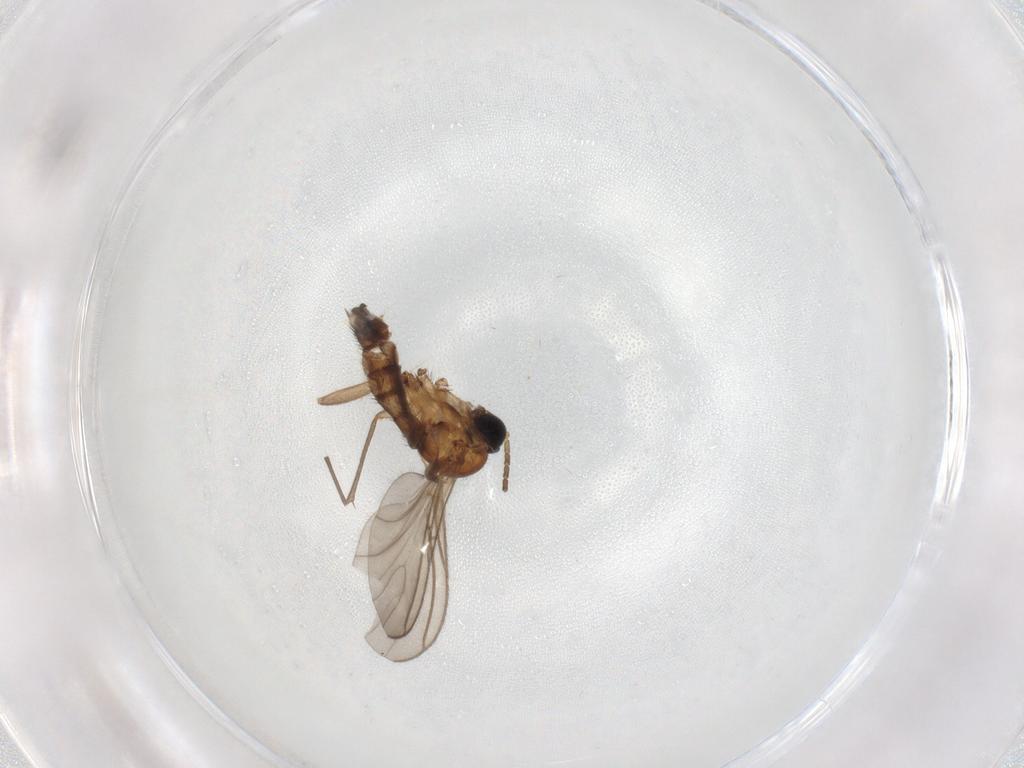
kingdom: Animalia
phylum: Arthropoda
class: Insecta
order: Diptera
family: Sciaridae
